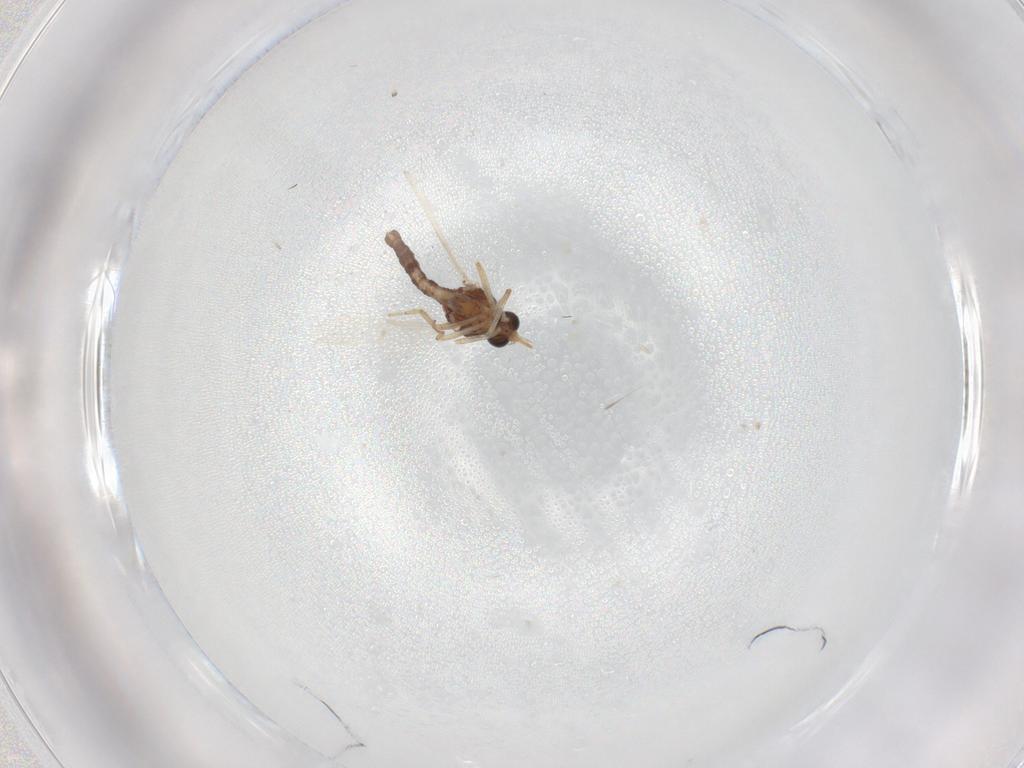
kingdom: Animalia
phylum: Arthropoda
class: Insecta
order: Diptera
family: Ceratopogonidae
